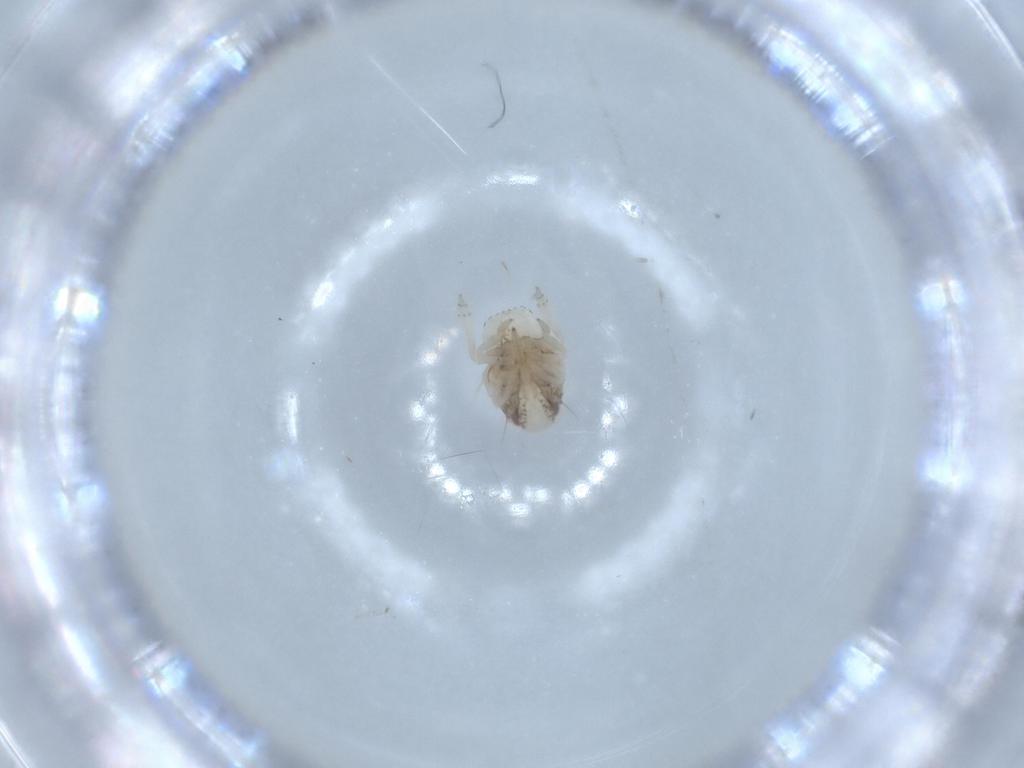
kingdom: Animalia
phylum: Arthropoda
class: Insecta
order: Hemiptera
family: Acanaloniidae
